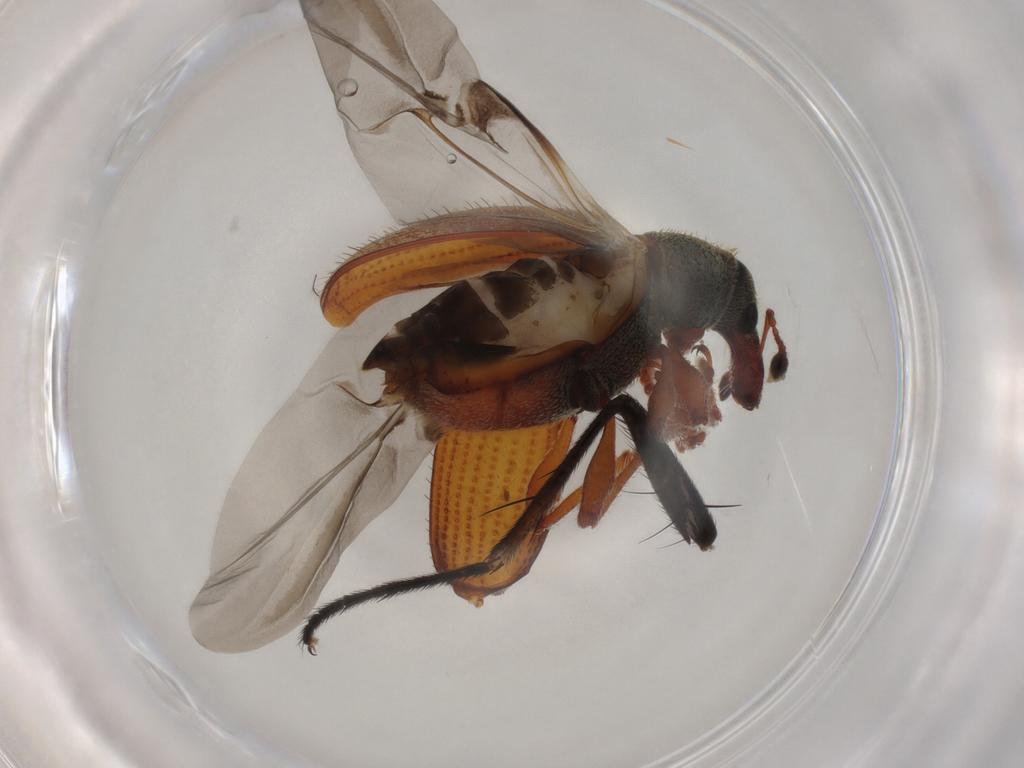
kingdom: Animalia
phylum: Arthropoda
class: Insecta
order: Coleoptera
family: Curculionidae
